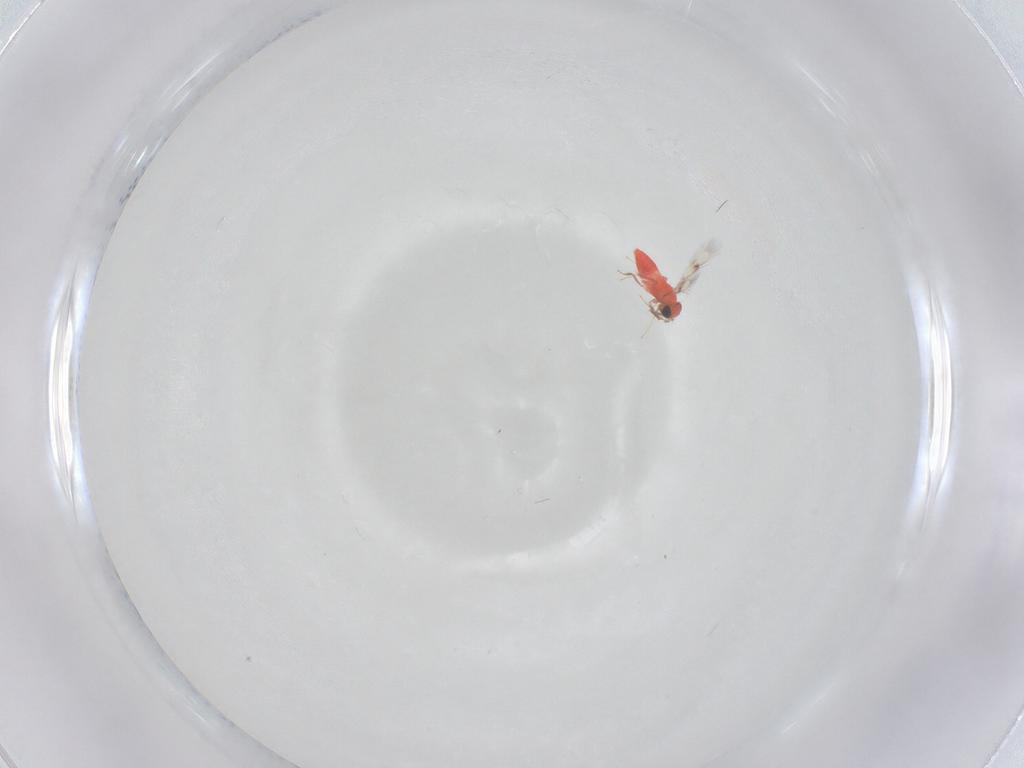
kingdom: Animalia
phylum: Arthropoda
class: Insecta
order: Hymenoptera
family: Trichogrammatidae
